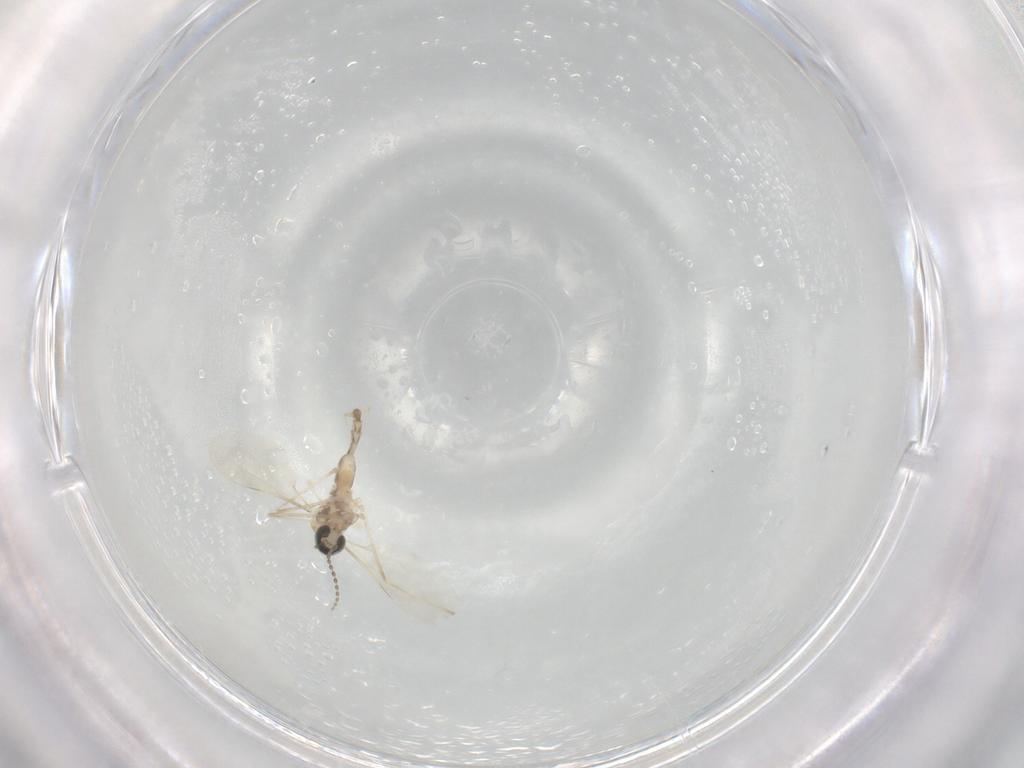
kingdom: Animalia
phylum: Arthropoda
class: Insecta
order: Diptera
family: Cecidomyiidae
